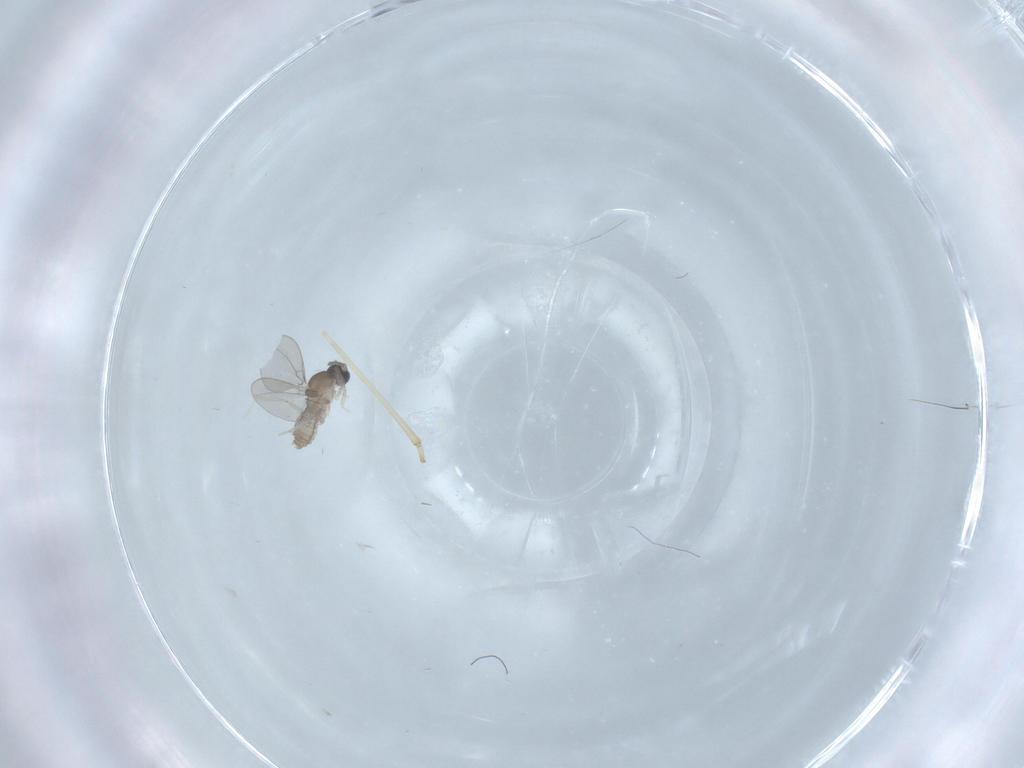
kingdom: Animalia
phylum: Arthropoda
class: Insecta
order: Diptera
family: Cecidomyiidae
